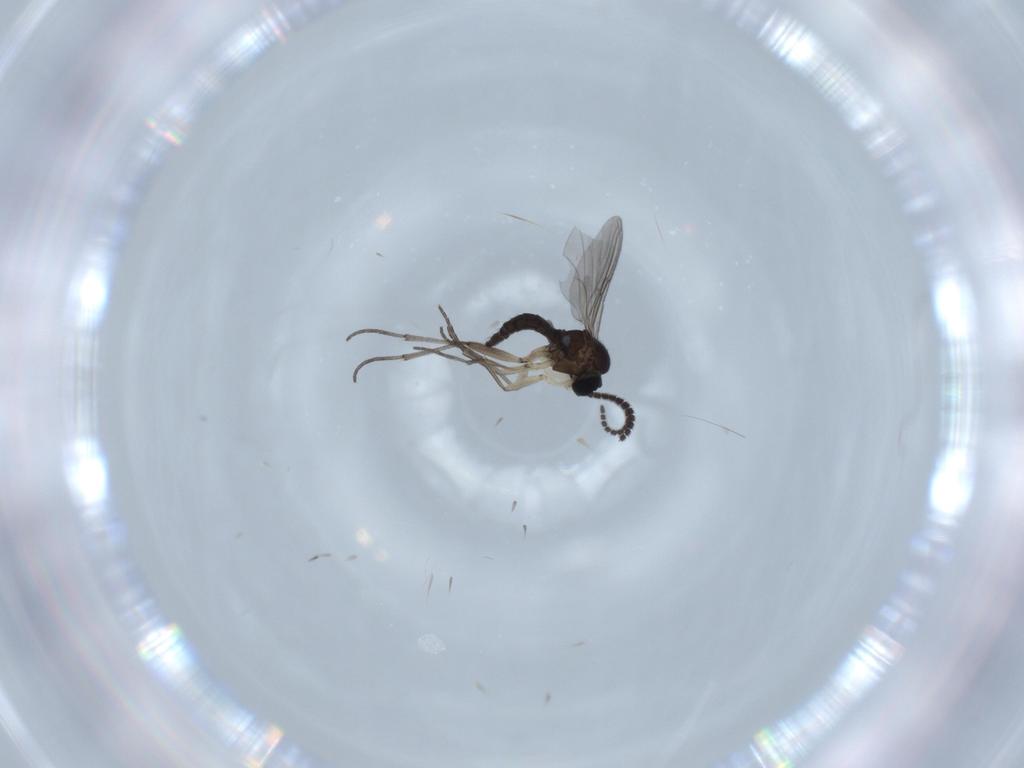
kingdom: Animalia
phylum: Arthropoda
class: Insecta
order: Diptera
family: Sciaridae
